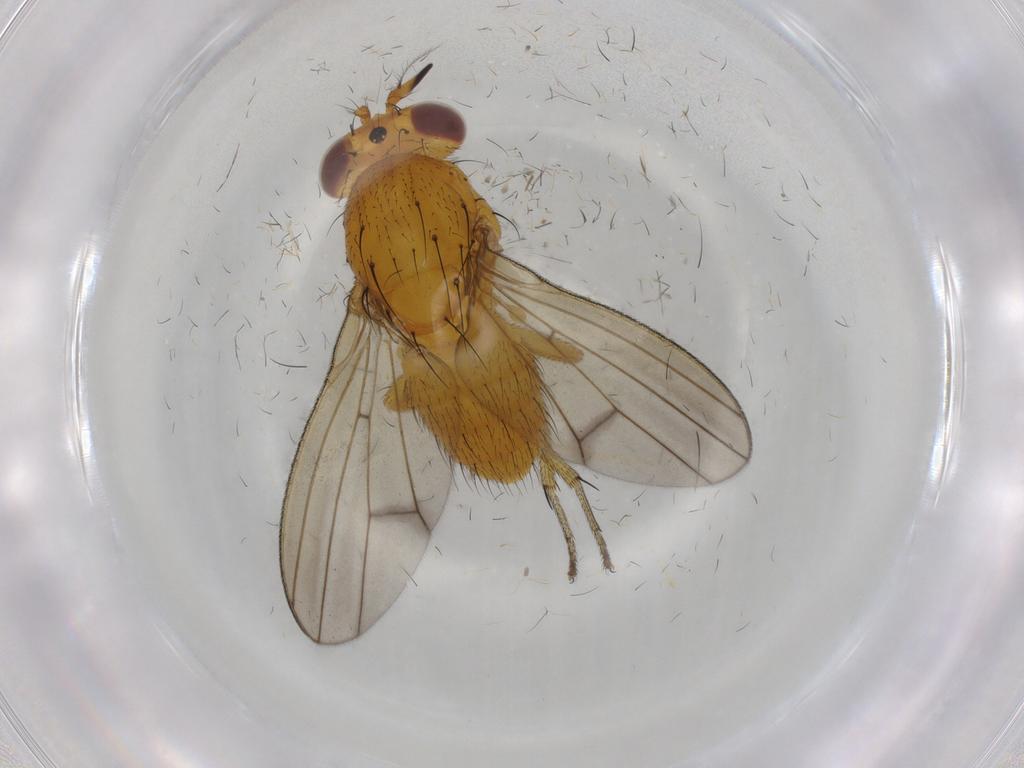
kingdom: Animalia
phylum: Arthropoda
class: Insecta
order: Diptera
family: Lauxaniidae
